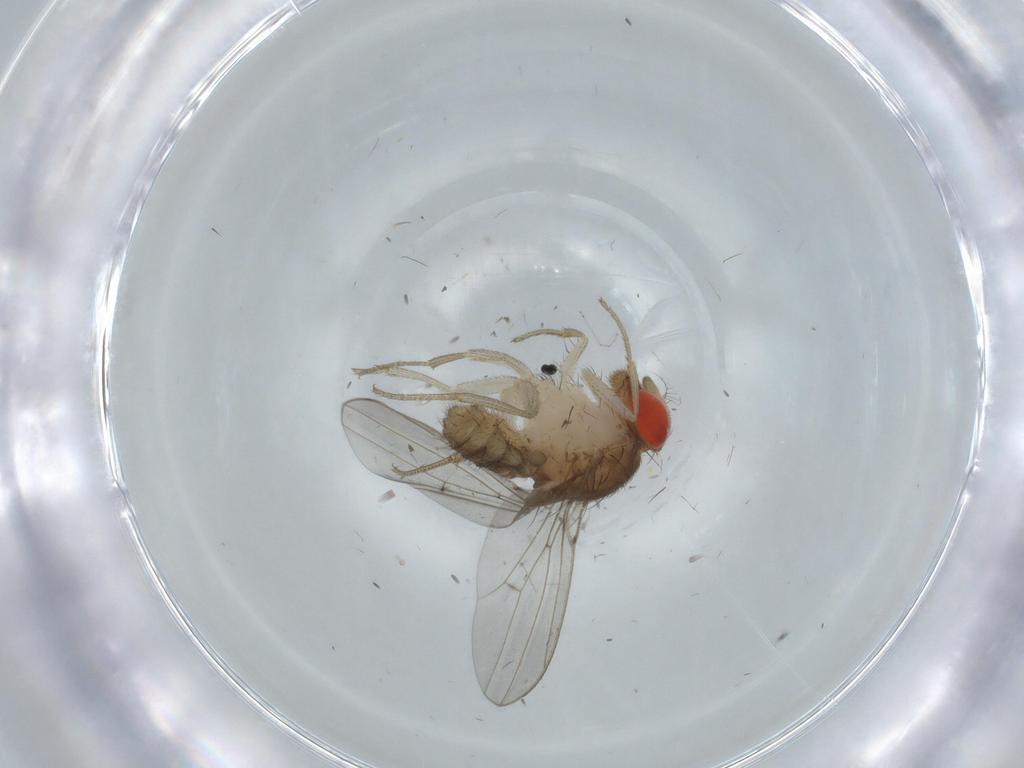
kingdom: Animalia
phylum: Arthropoda
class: Insecta
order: Diptera
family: Drosophilidae
